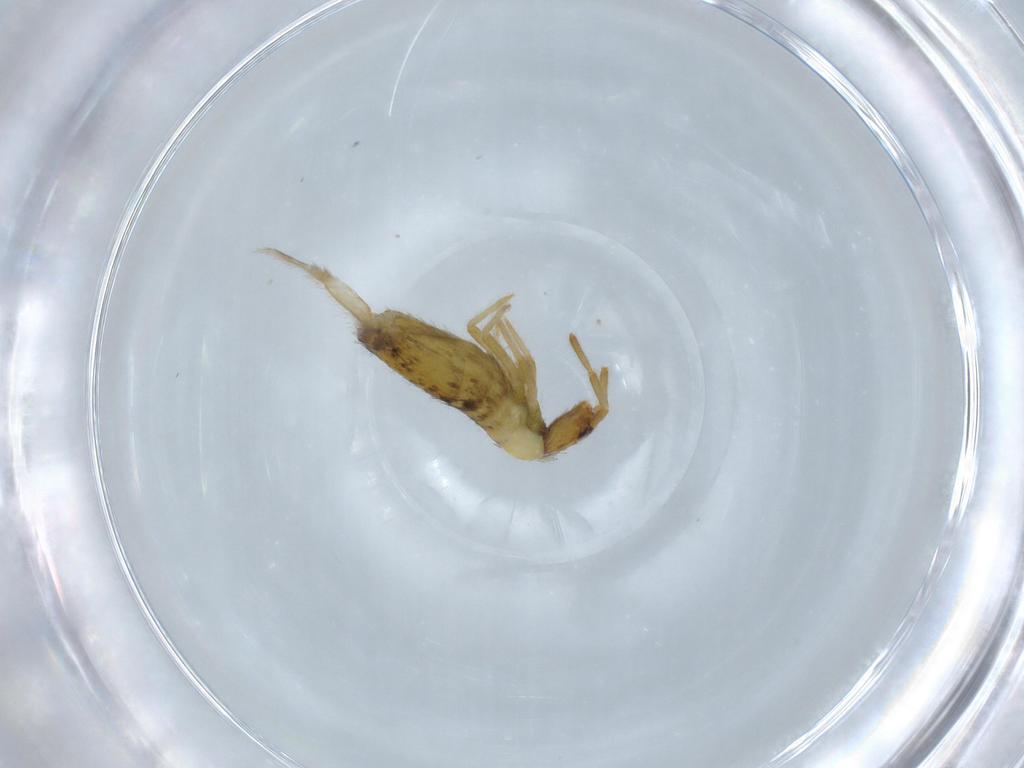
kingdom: Animalia
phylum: Arthropoda
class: Collembola
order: Entomobryomorpha
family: Entomobryidae
